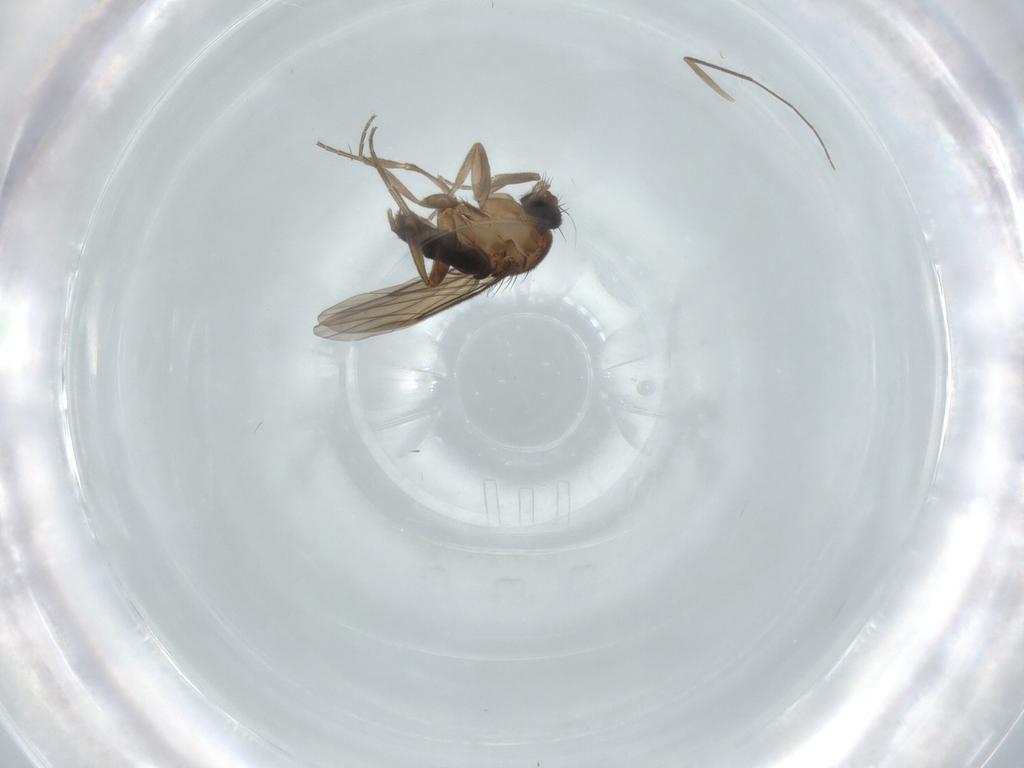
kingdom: Animalia
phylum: Arthropoda
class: Insecta
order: Diptera
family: Phoridae
